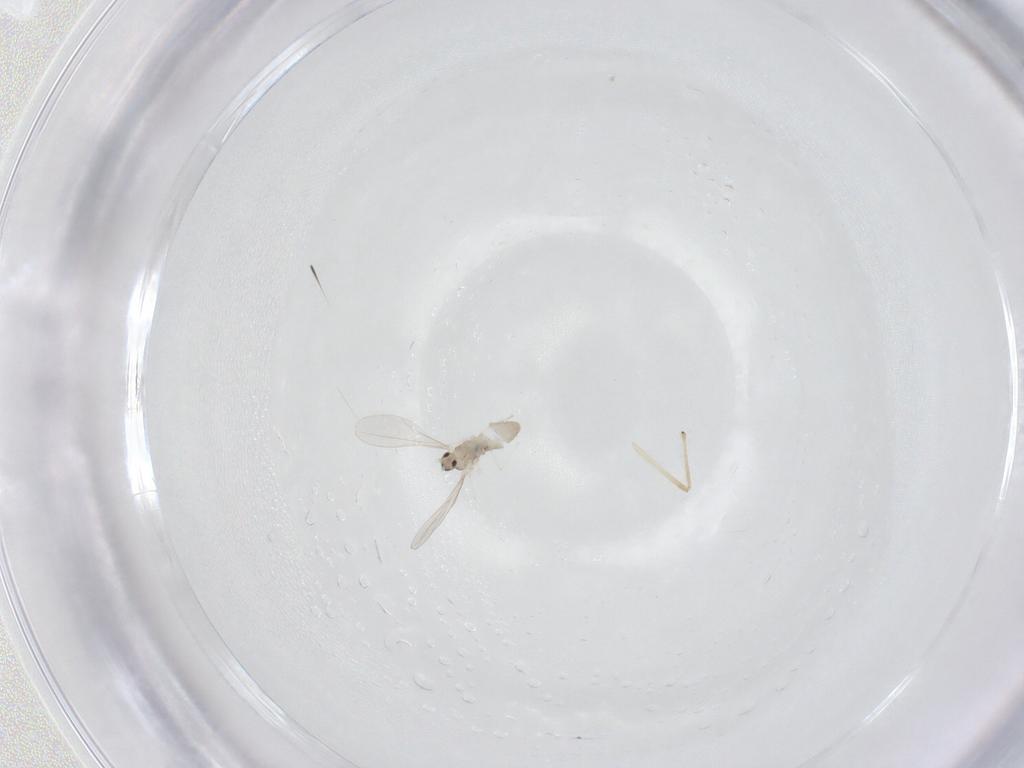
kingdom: Animalia
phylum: Arthropoda
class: Insecta
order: Diptera
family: Cecidomyiidae
